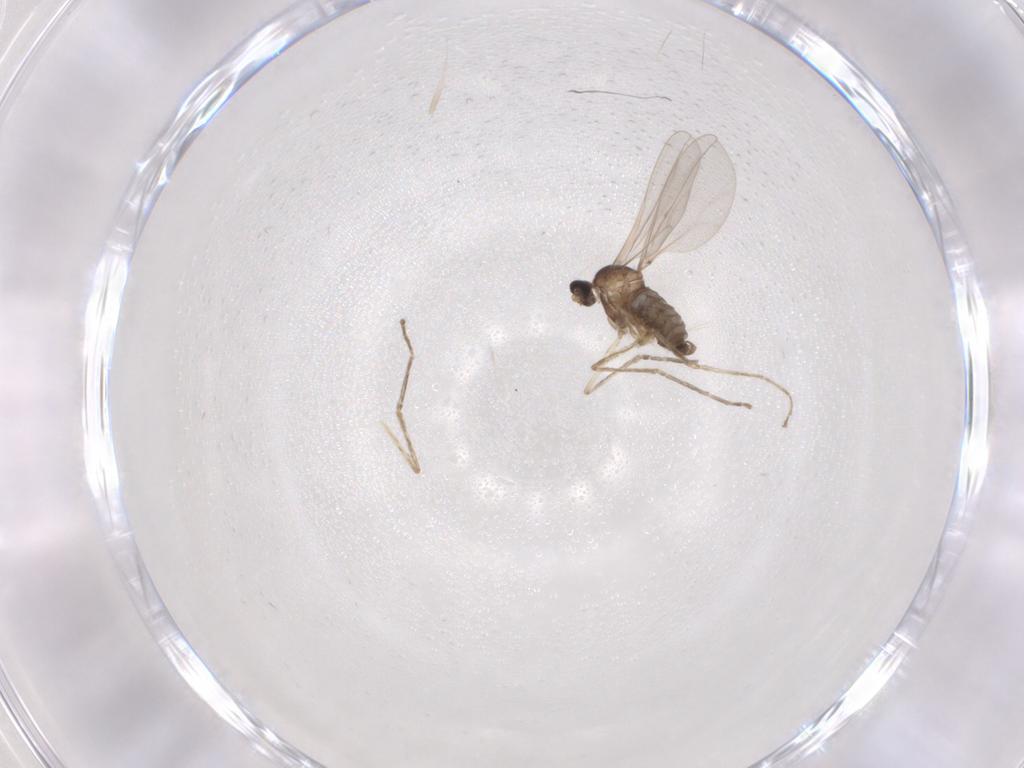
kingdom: Animalia
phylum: Arthropoda
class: Insecta
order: Diptera
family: Cecidomyiidae
